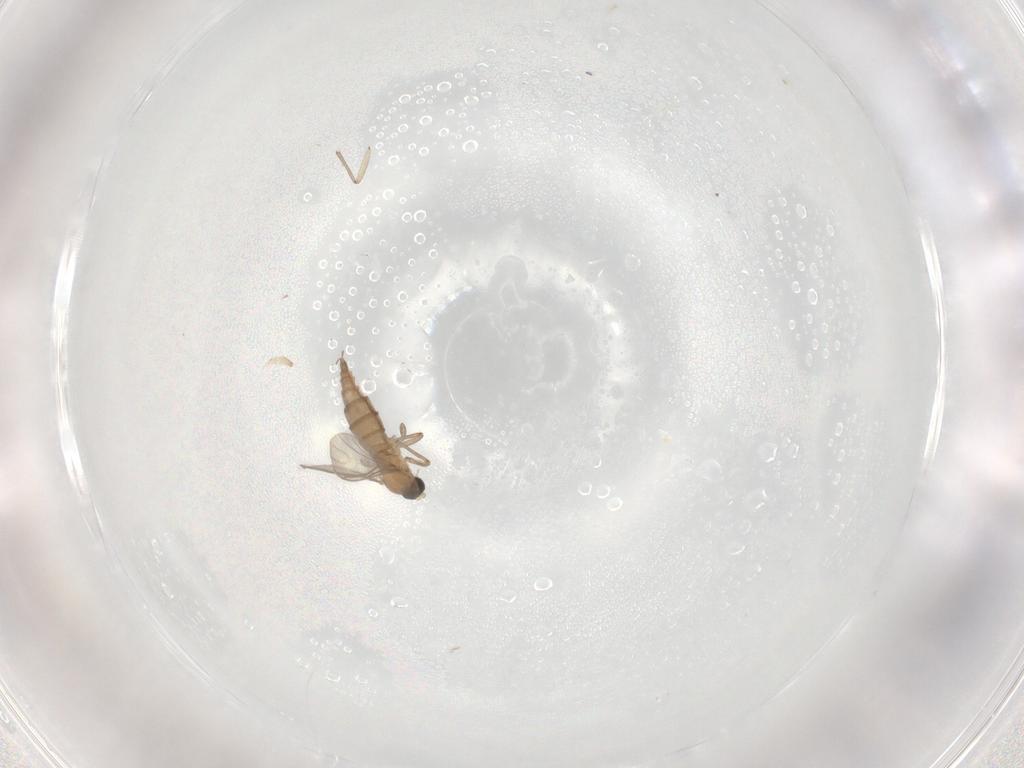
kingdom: Animalia
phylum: Arthropoda
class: Insecta
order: Diptera
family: Sciaridae
